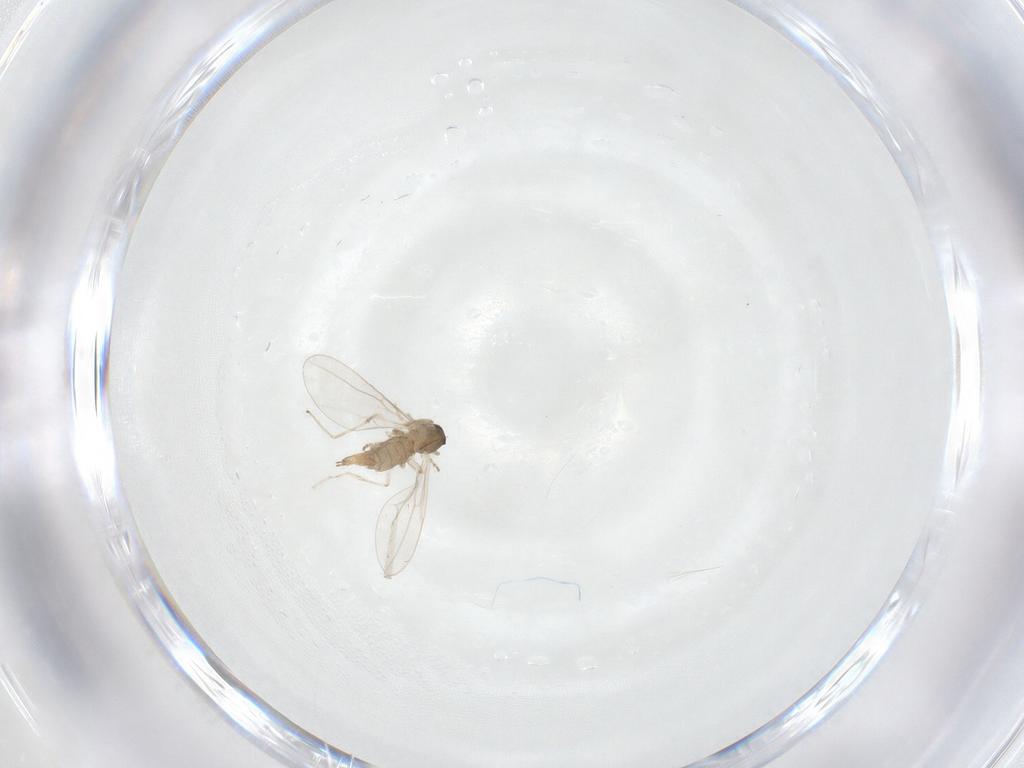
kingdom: Animalia
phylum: Arthropoda
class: Insecta
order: Diptera
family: Cecidomyiidae
